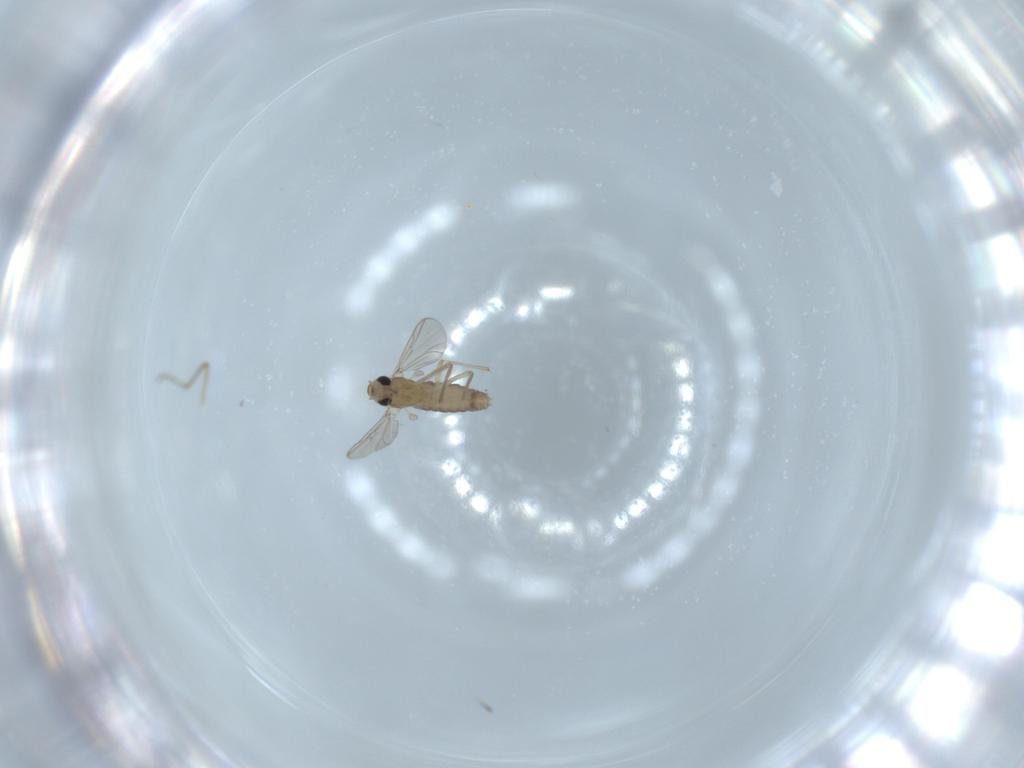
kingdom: Animalia
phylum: Arthropoda
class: Insecta
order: Diptera
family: Chironomidae
